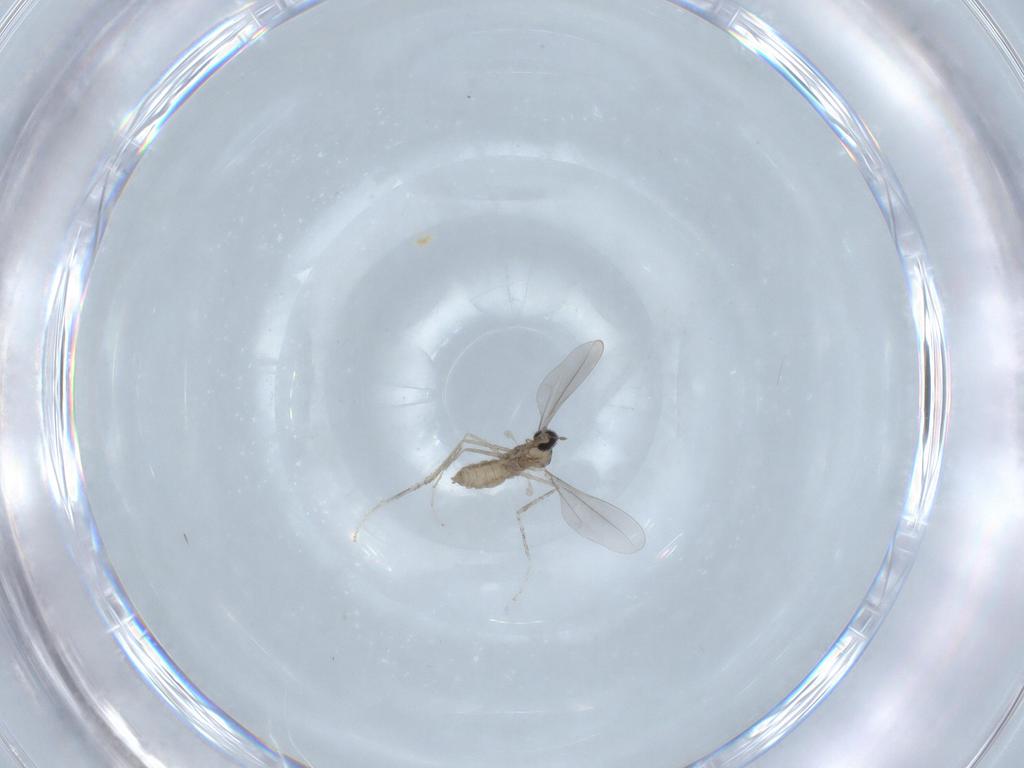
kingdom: Animalia
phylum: Arthropoda
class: Insecta
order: Diptera
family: Cecidomyiidae
